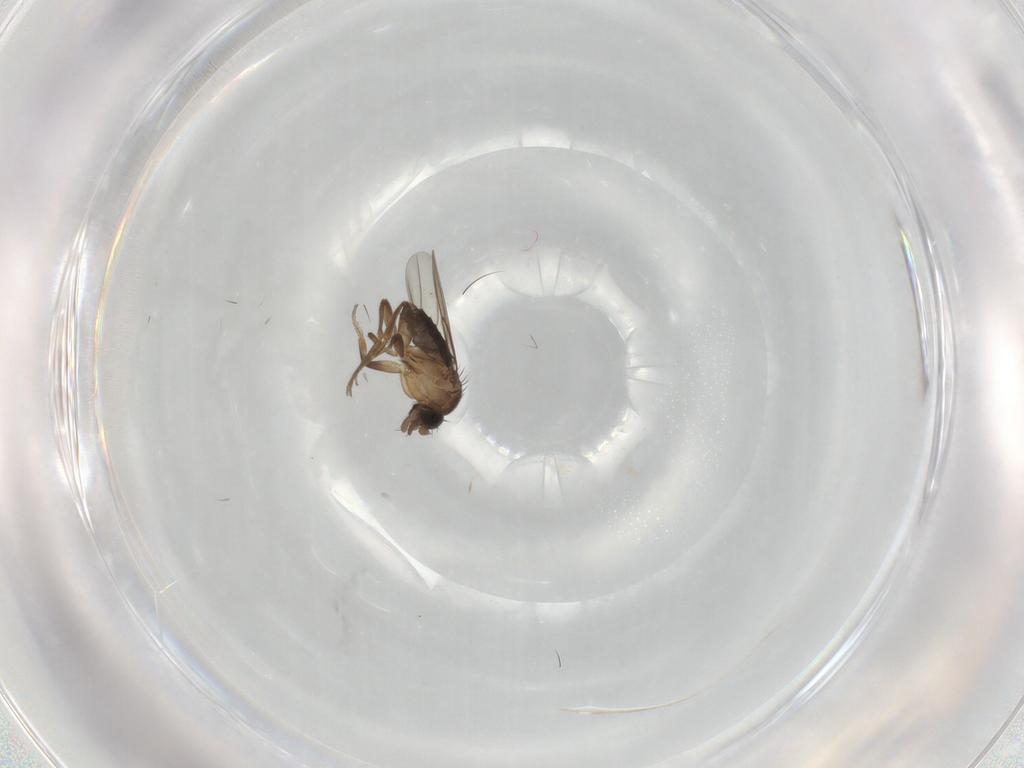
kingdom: Animalia
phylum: Arthropoda
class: Insecta
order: Diptera
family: Phoridae
